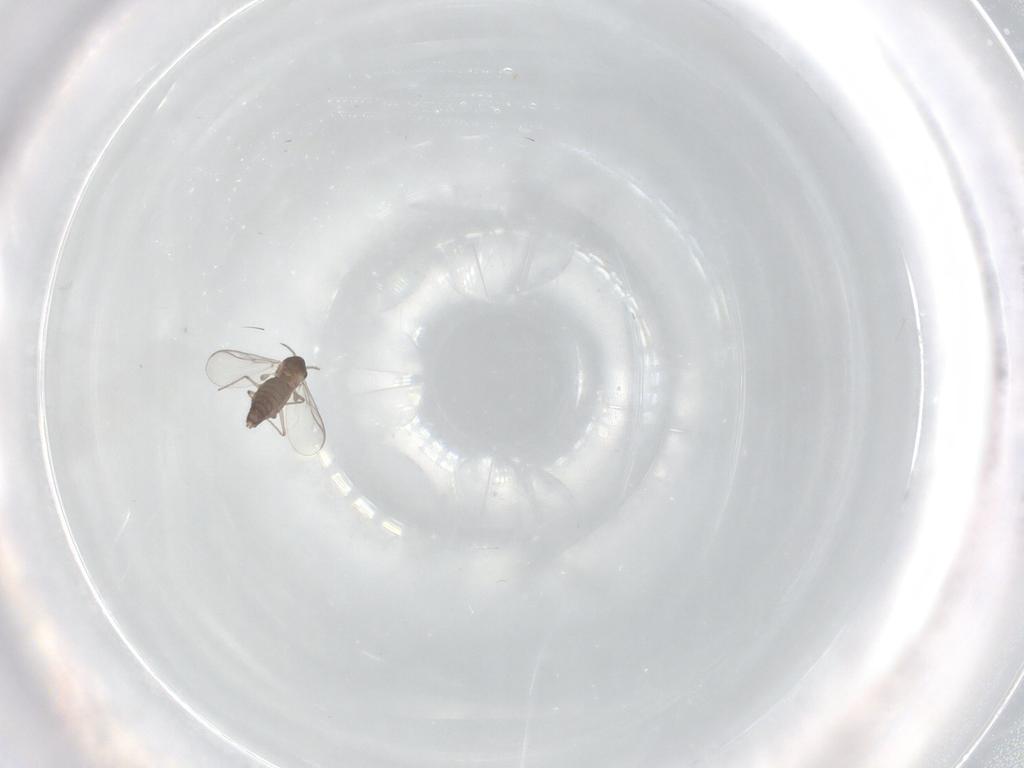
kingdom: Animalia
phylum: Arthropoda
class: Insecta
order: Diptera
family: Chironomidae
